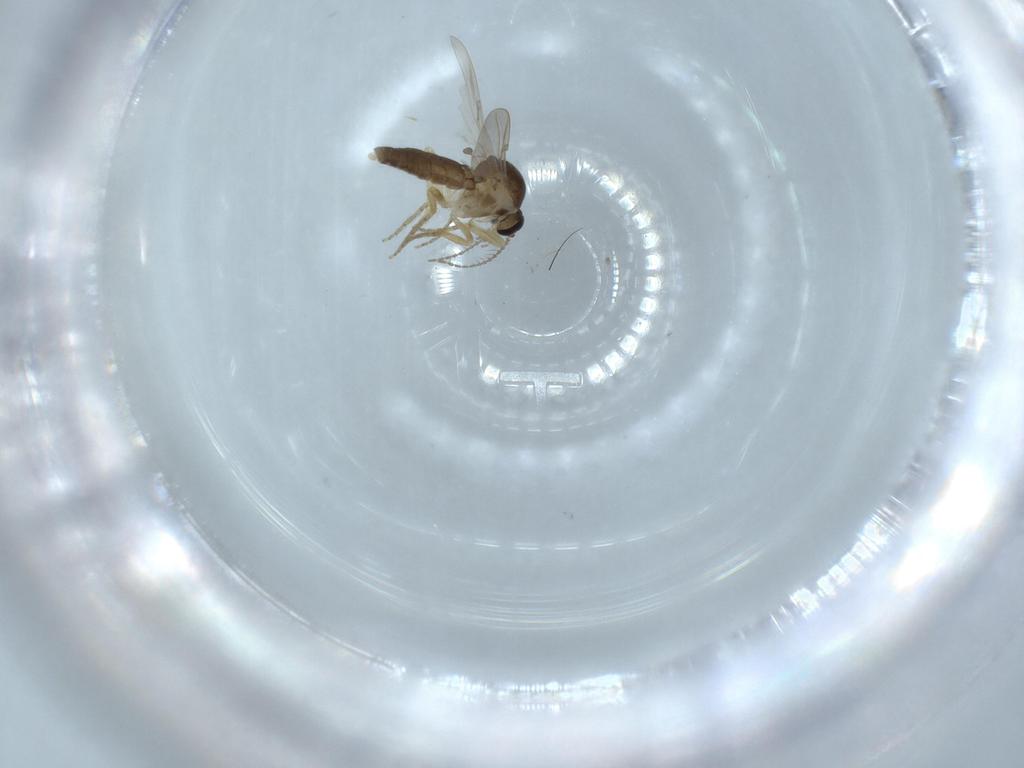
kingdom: Animalia
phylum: Arthropoda
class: Insecta
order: Diptera
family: Ceratopogonidae
